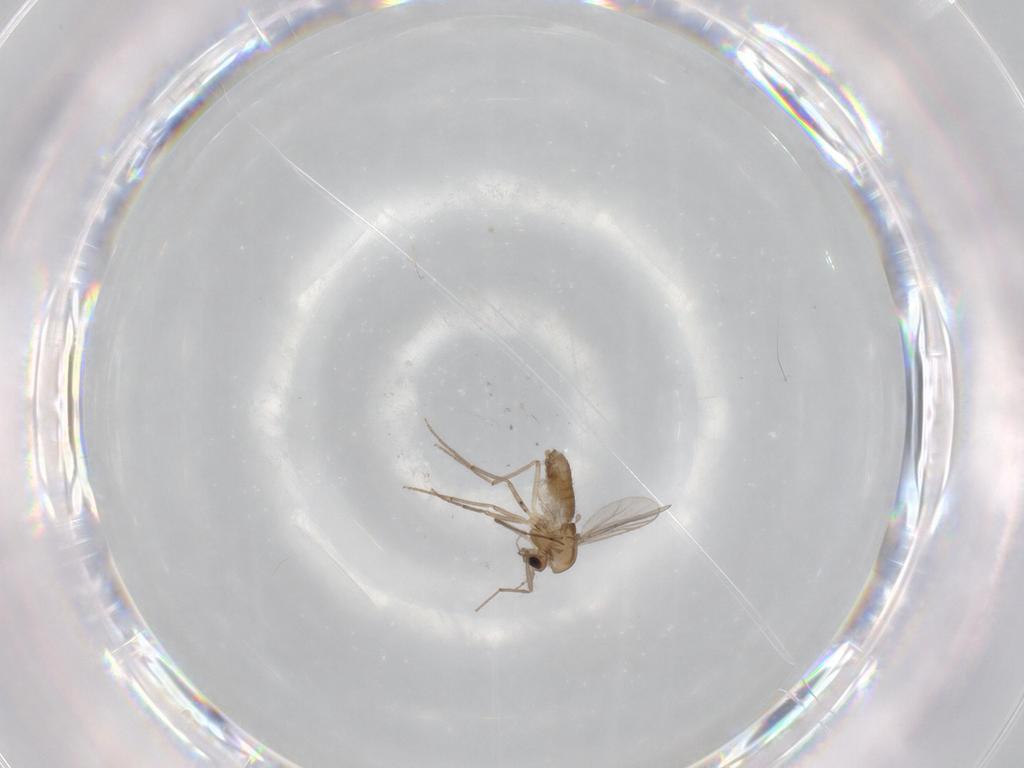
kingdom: Animalia
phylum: Arthropoda
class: Insecta
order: Diptera
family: Chironomidae
